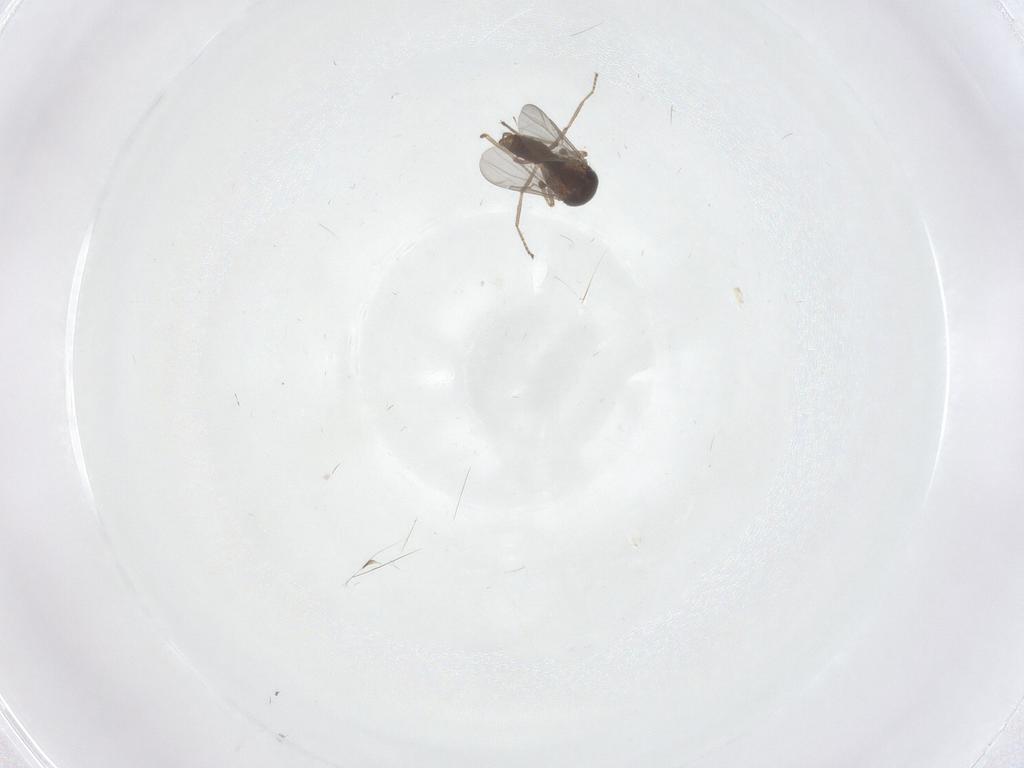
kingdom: Animalia
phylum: Arthropoda
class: Insecta
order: Diptera
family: Ceratopogonidae
